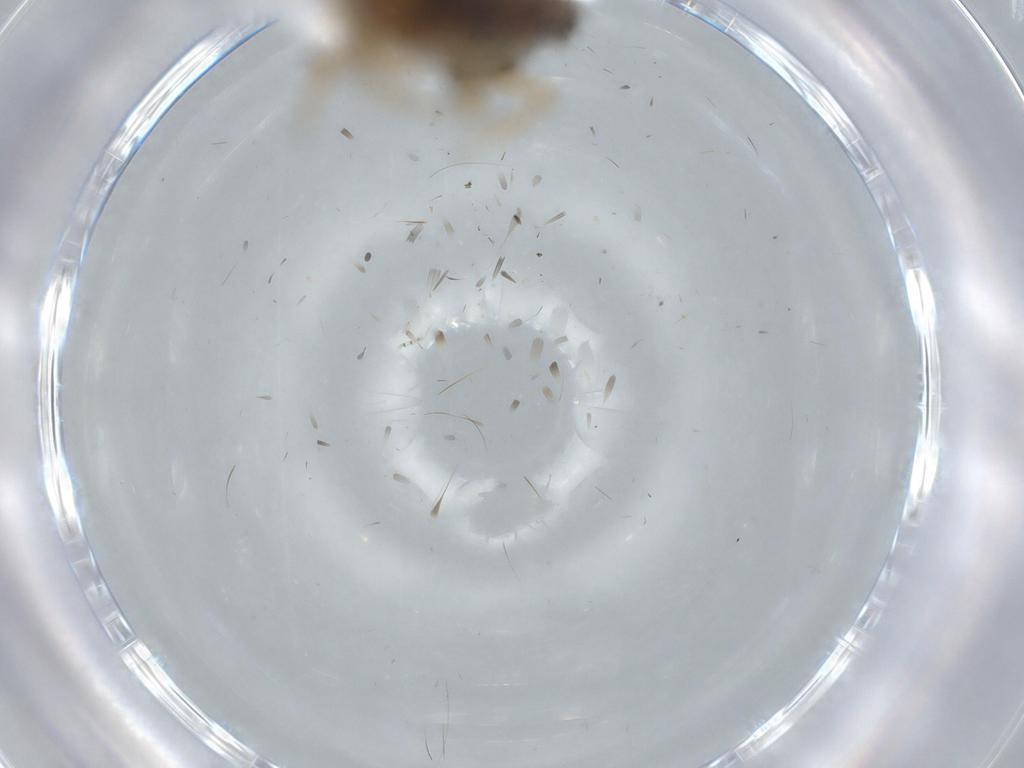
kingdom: Animalia
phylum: Arthropoda
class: Insecta
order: Hemiptera
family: Cicadellidae
